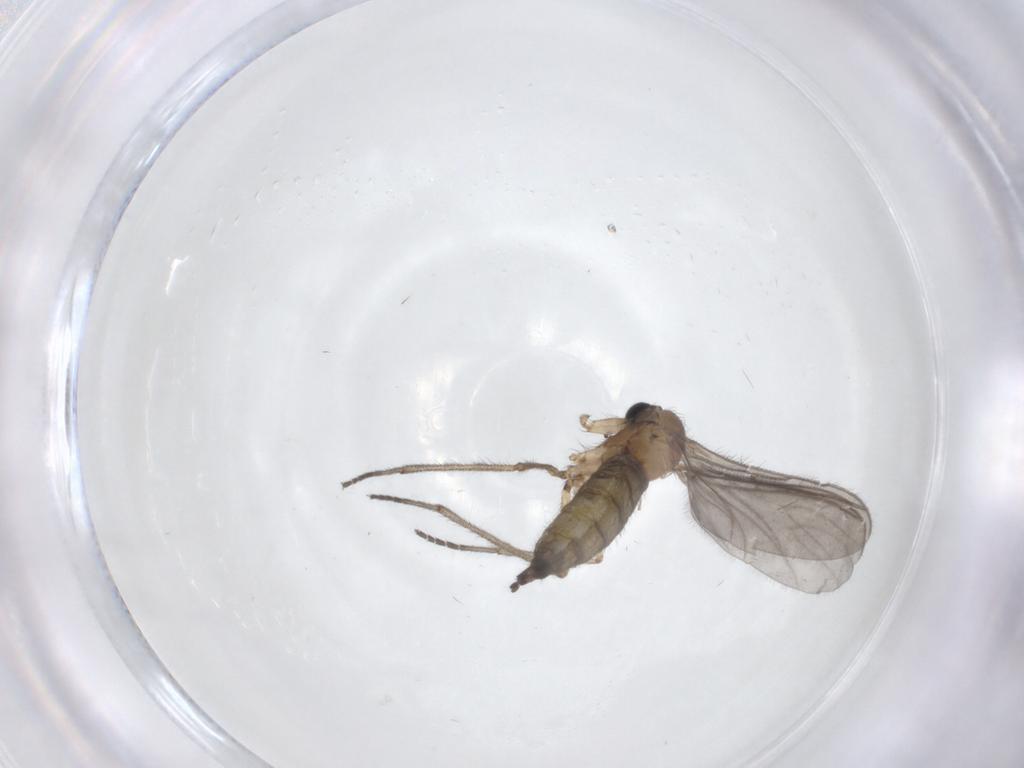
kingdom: Animalia
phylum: Arthropoda
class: Insecta
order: Diptera
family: Sciaridae
